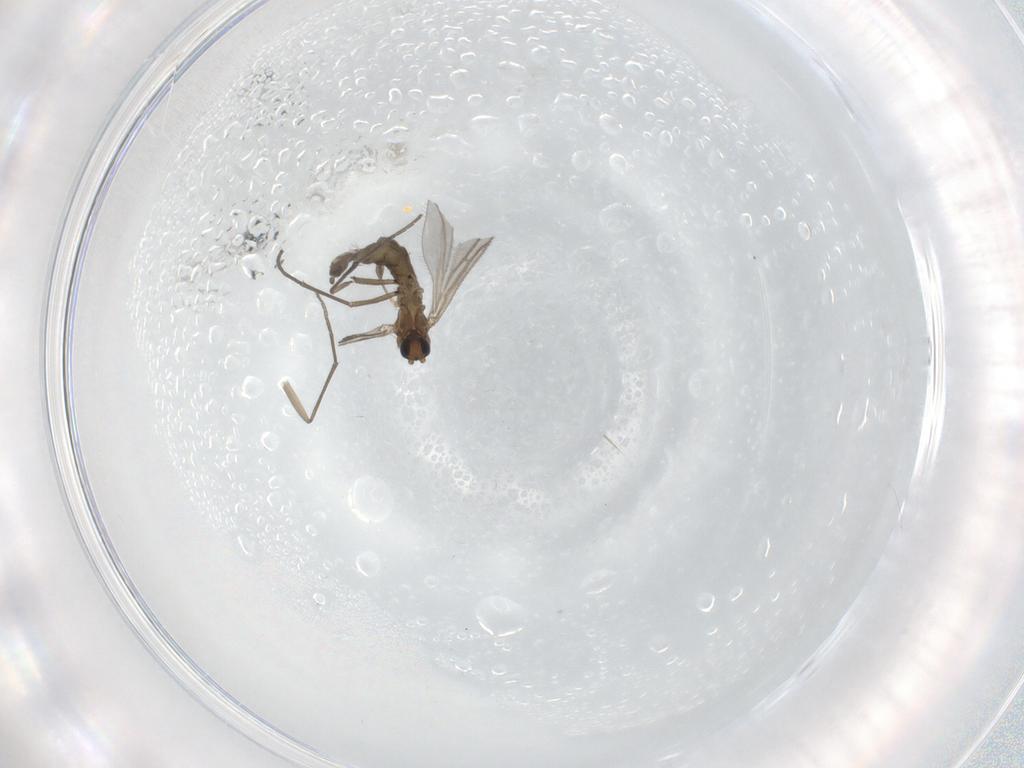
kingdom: Animalia
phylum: Arthropoda
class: Insecta
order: Diptera
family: Sciaridae
